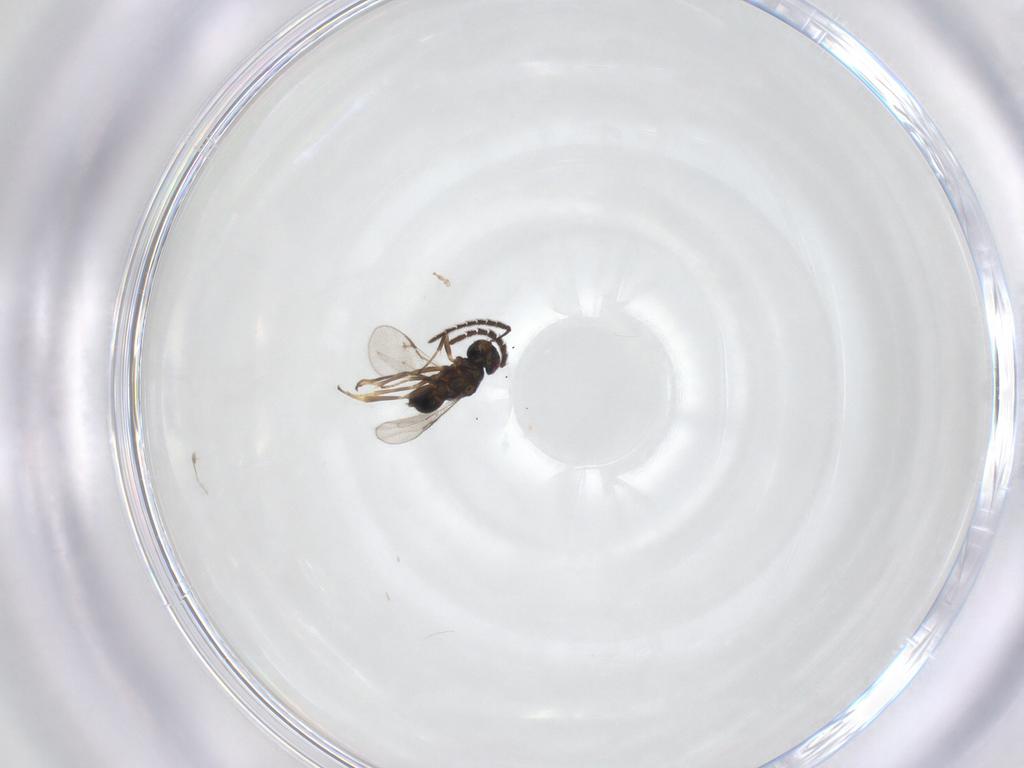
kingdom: Animalia
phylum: Arthropoda
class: Insecta
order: Hymenoptera
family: Encyrtidae
